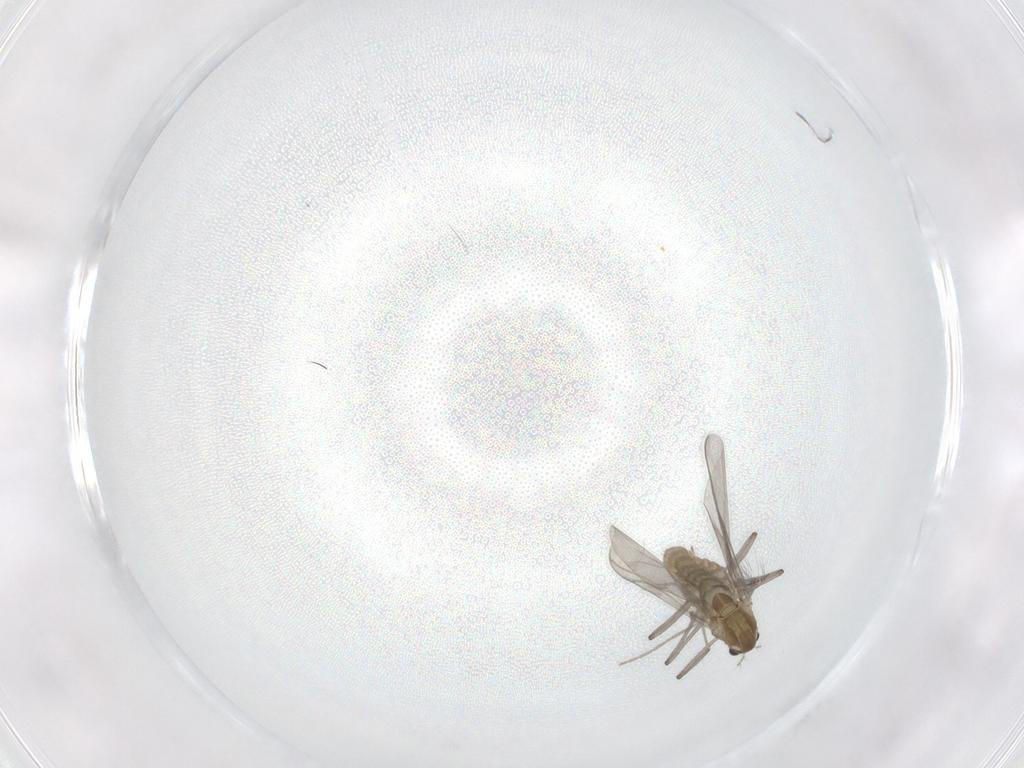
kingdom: Animalia
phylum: Arthropoda
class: Insecta
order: Diptera
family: Chironomidae
